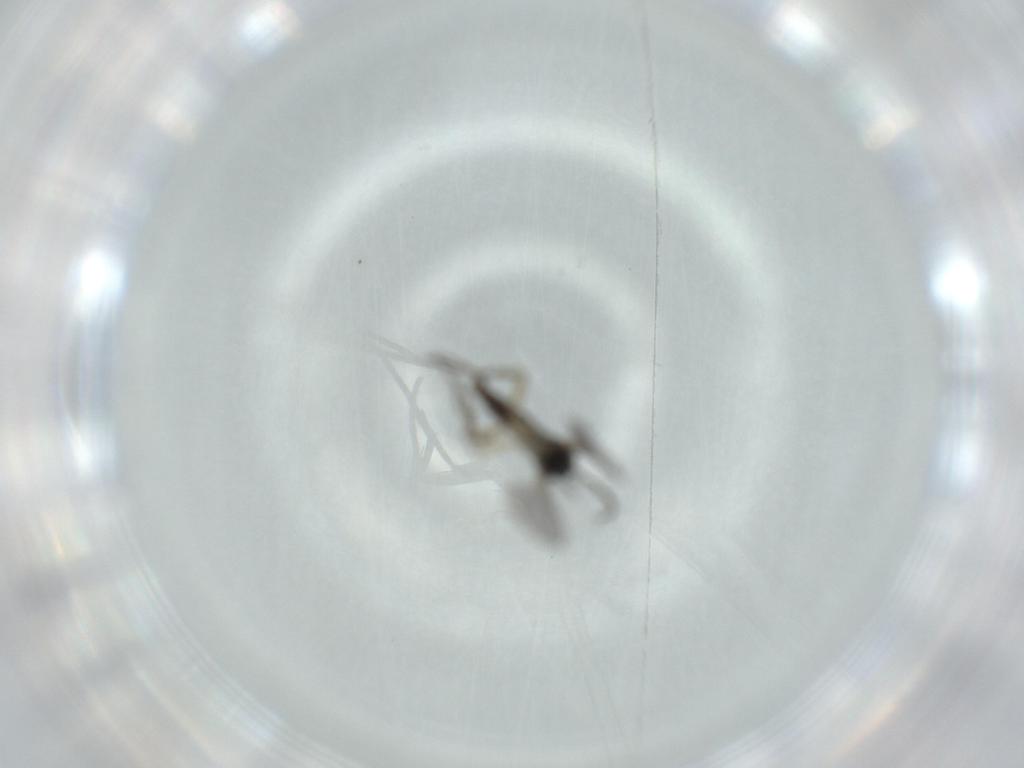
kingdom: Animalia
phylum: Arthropoda
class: Insecta
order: Diptera
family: Sciaridae
